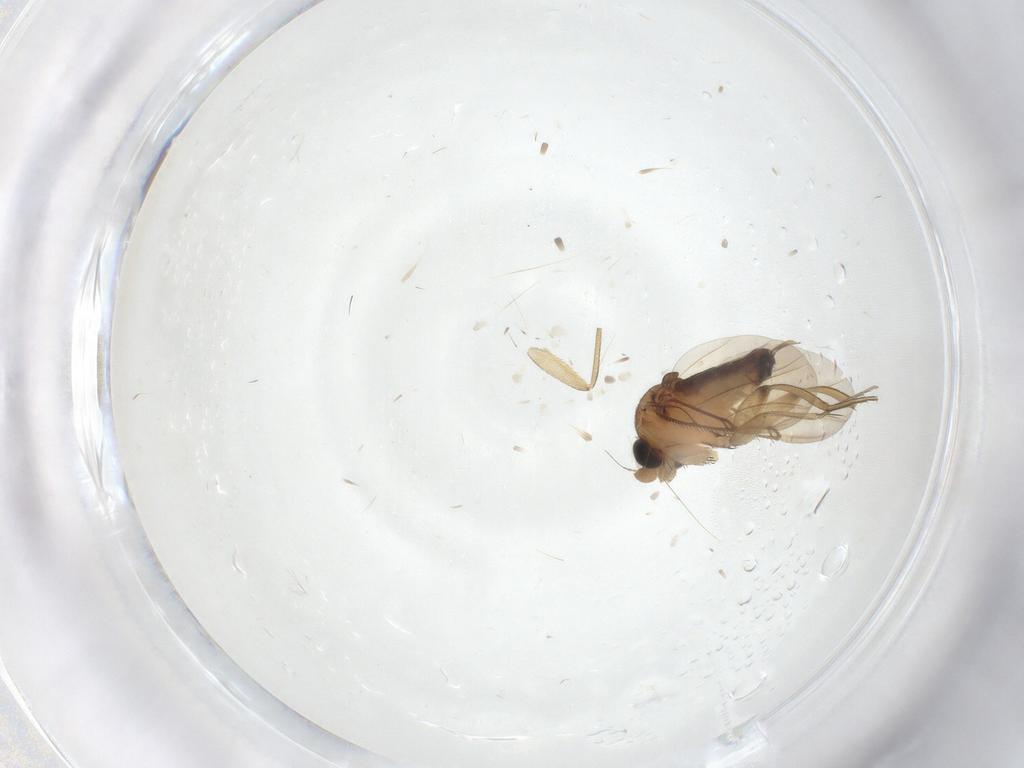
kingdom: Animalia
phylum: Arthropoda
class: Insecta
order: Diptera
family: Phoridae
